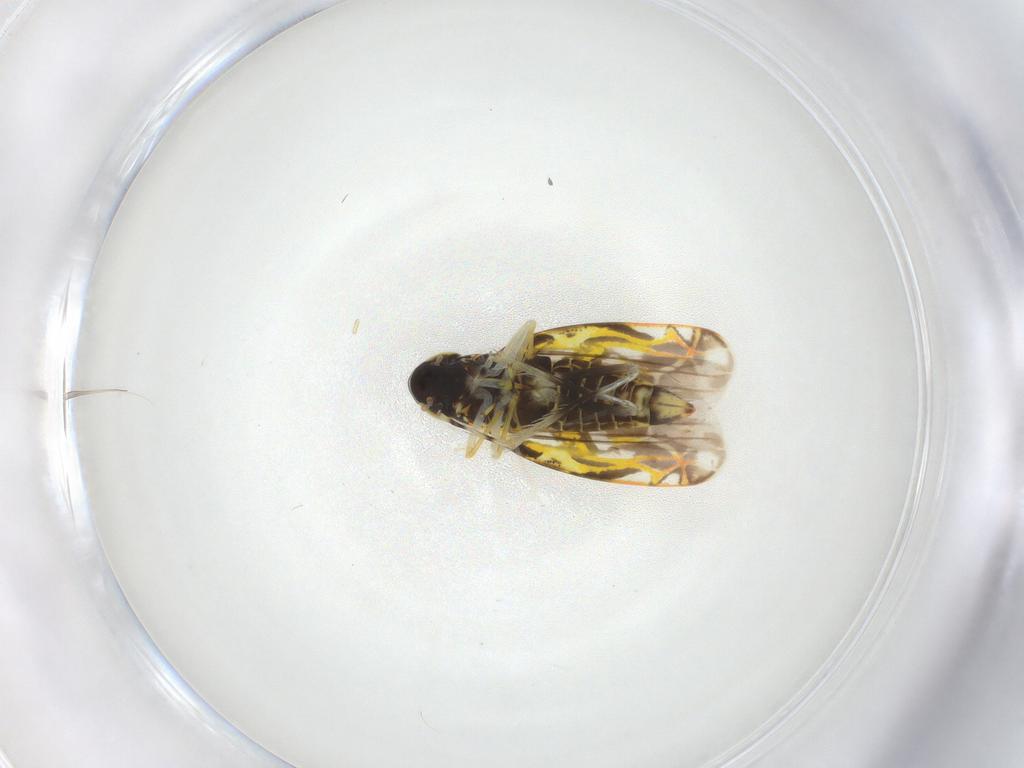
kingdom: Animalia
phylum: Arthropoda
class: Insecta
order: Hemiptera
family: Cicadellidae
